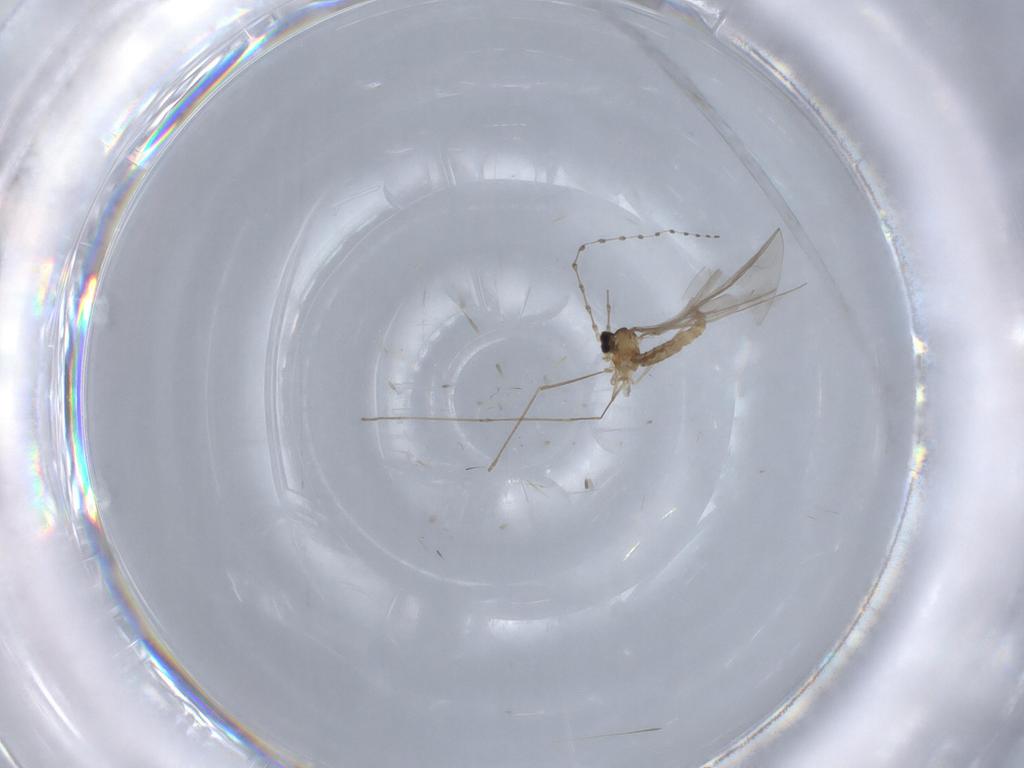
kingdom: Animalia
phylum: Arthropoda
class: Insecta
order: Diptera
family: Cecidomyiidae
